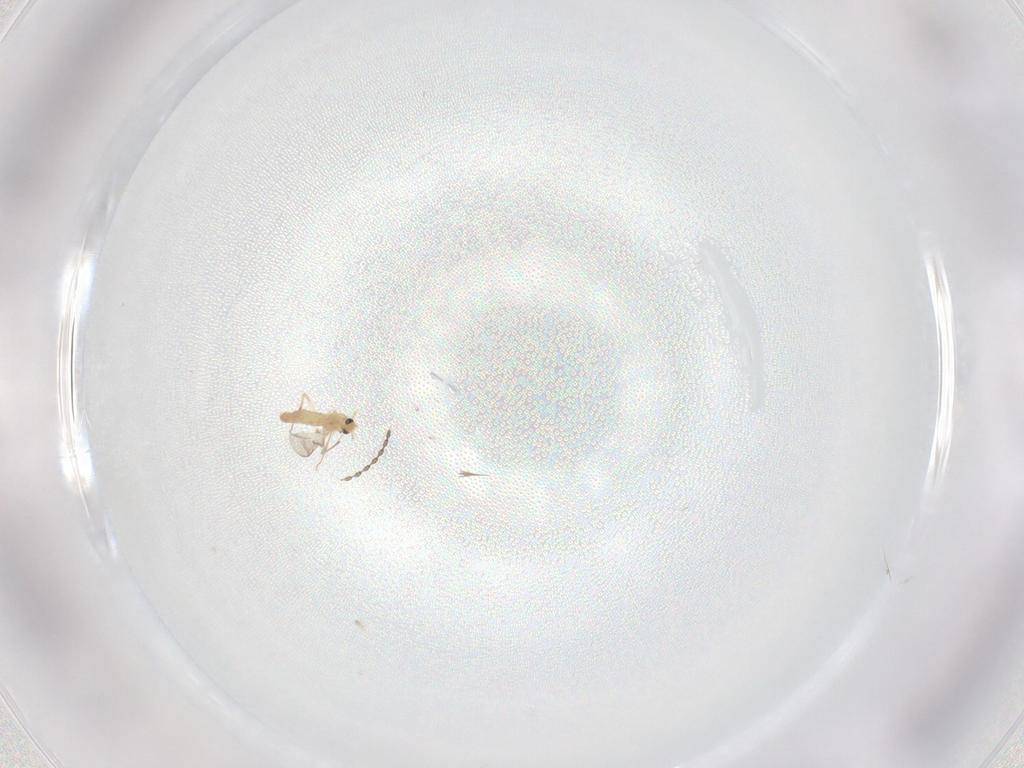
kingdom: Animalia
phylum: Arthropoda
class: Insecta
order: Diptera
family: Chironomidae
